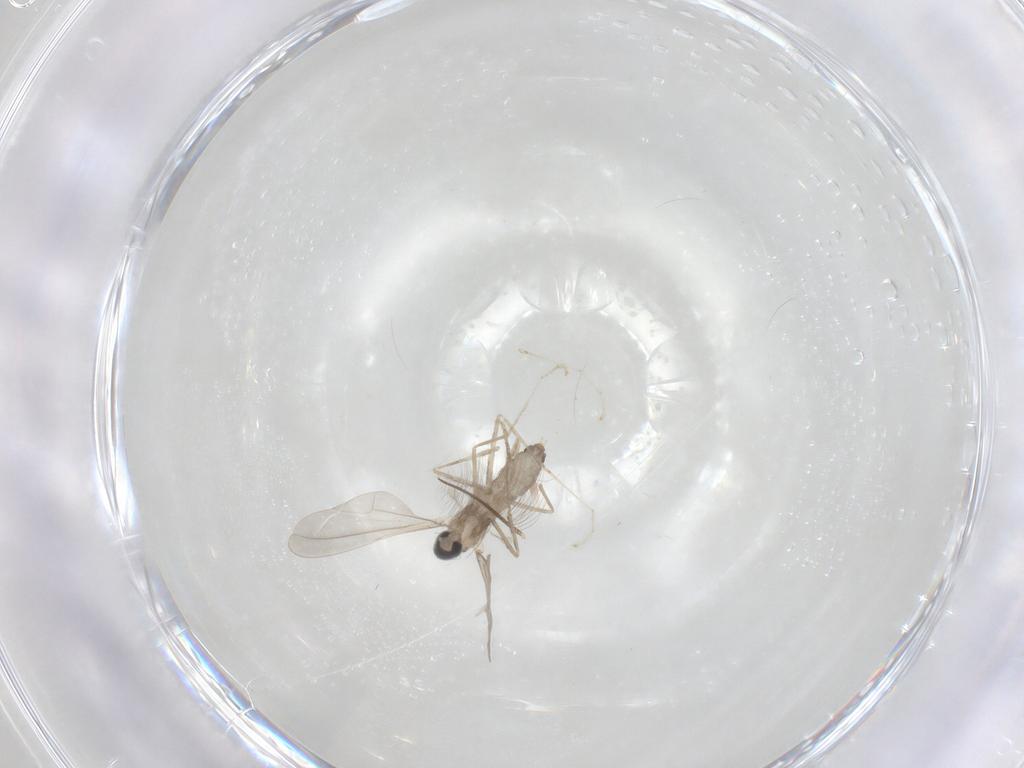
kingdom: Animalia
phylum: Arthropoda
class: Insecta
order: Diptera
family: Cecidomyiidae
